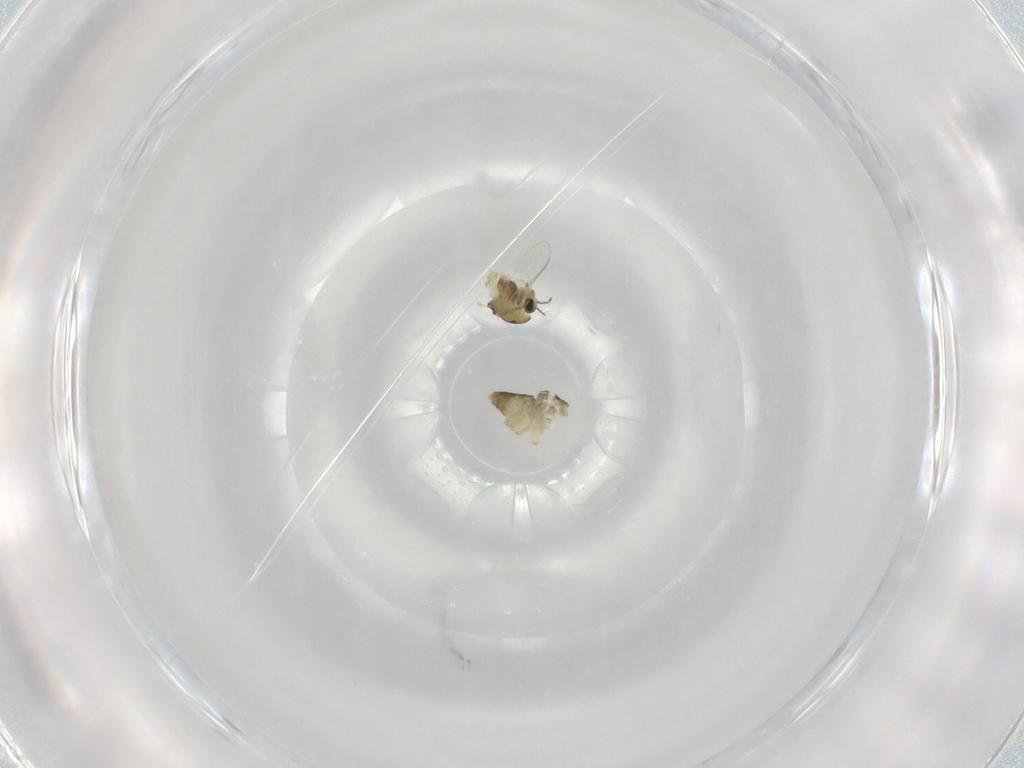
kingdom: Animalia
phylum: Arthropoda
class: Insecta
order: Diptera
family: Chironomidae
